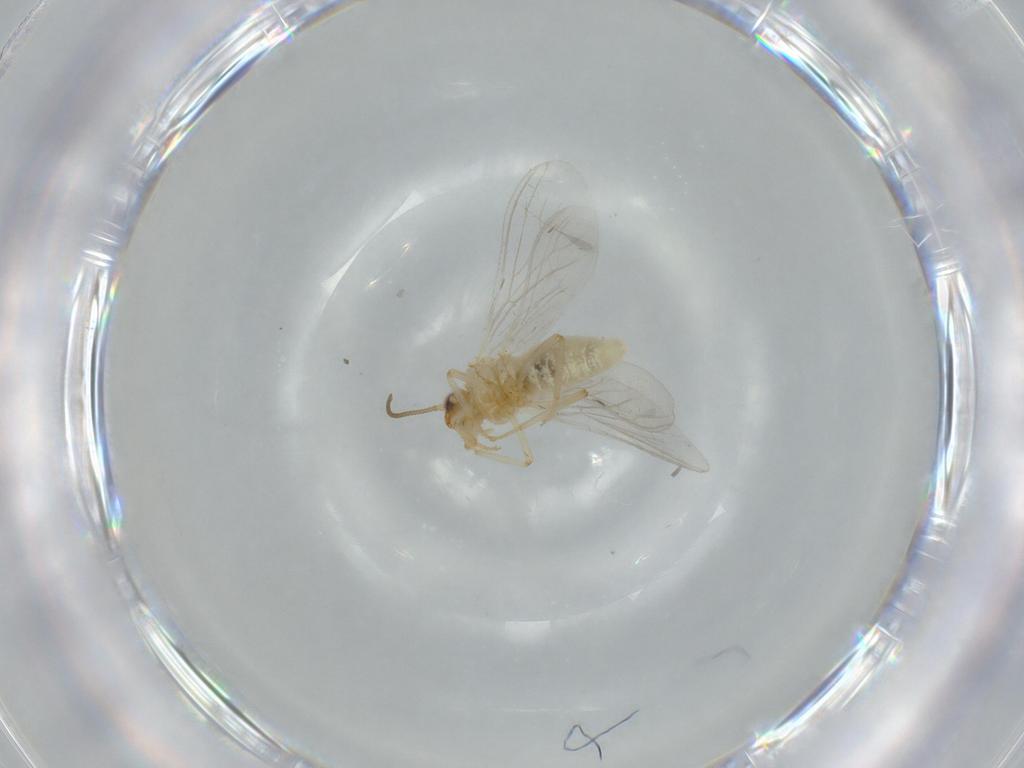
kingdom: Animalia
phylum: Arthropoda
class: Insecta
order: Neuroptera
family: Coniopterygidae
